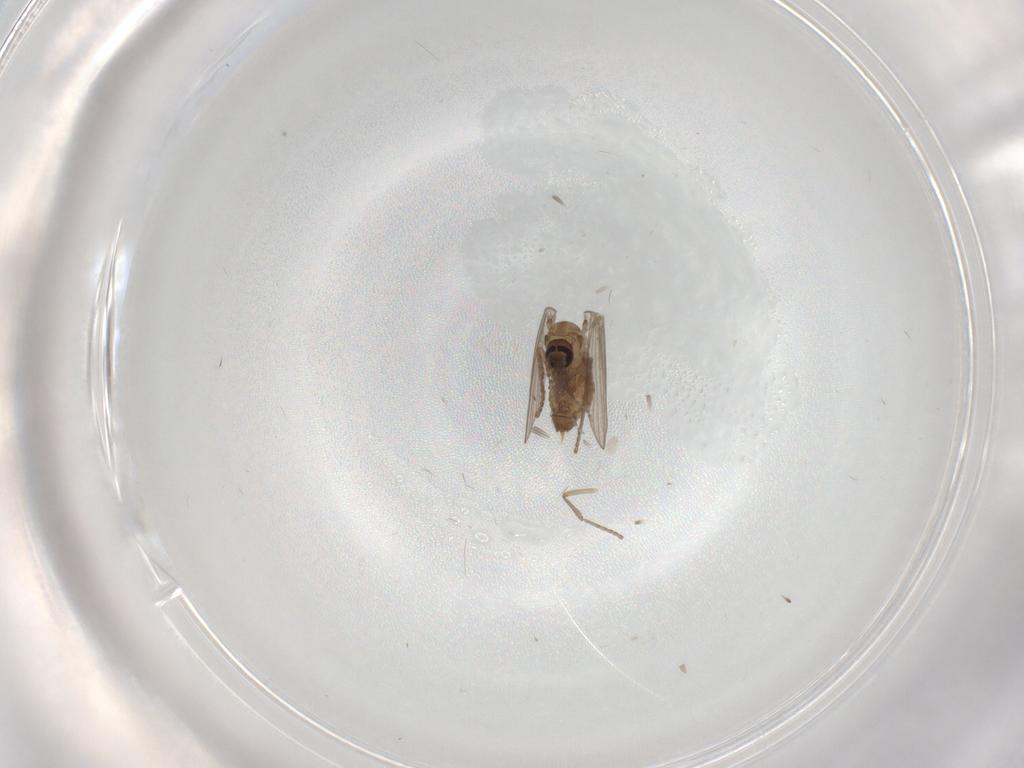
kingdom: Animalia
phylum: Arthropoda
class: Insecta
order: Diptera
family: Psychodidae
